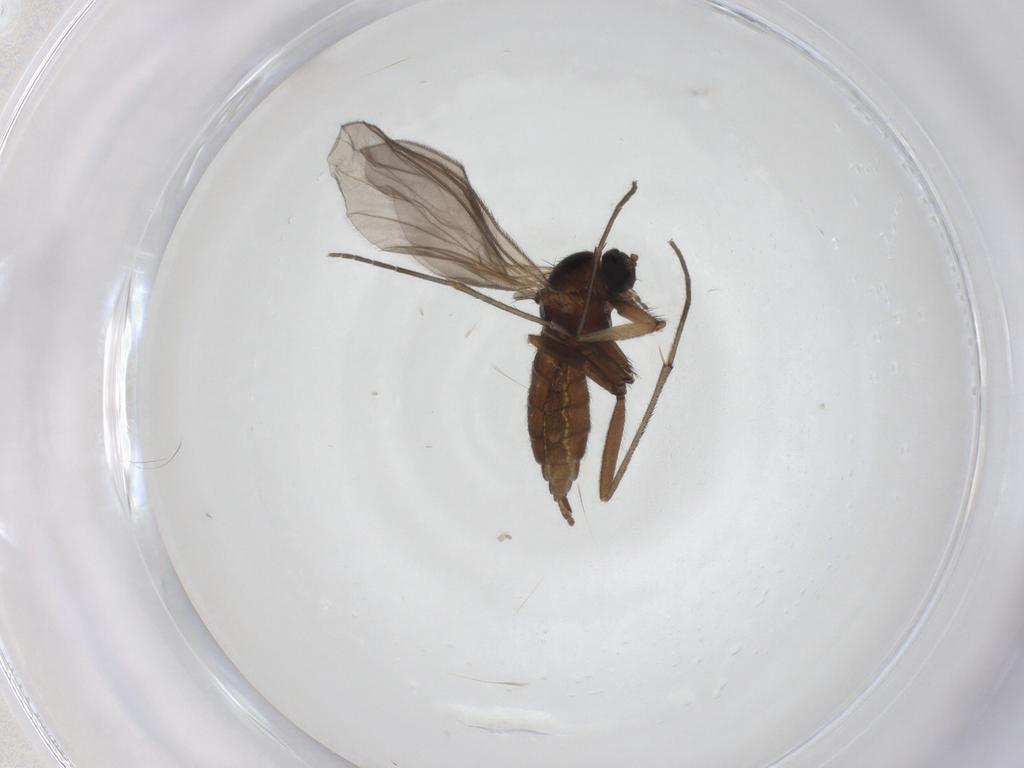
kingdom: Animalia
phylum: Arthropoda
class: Insecta
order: Diptera
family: Sciaridae
